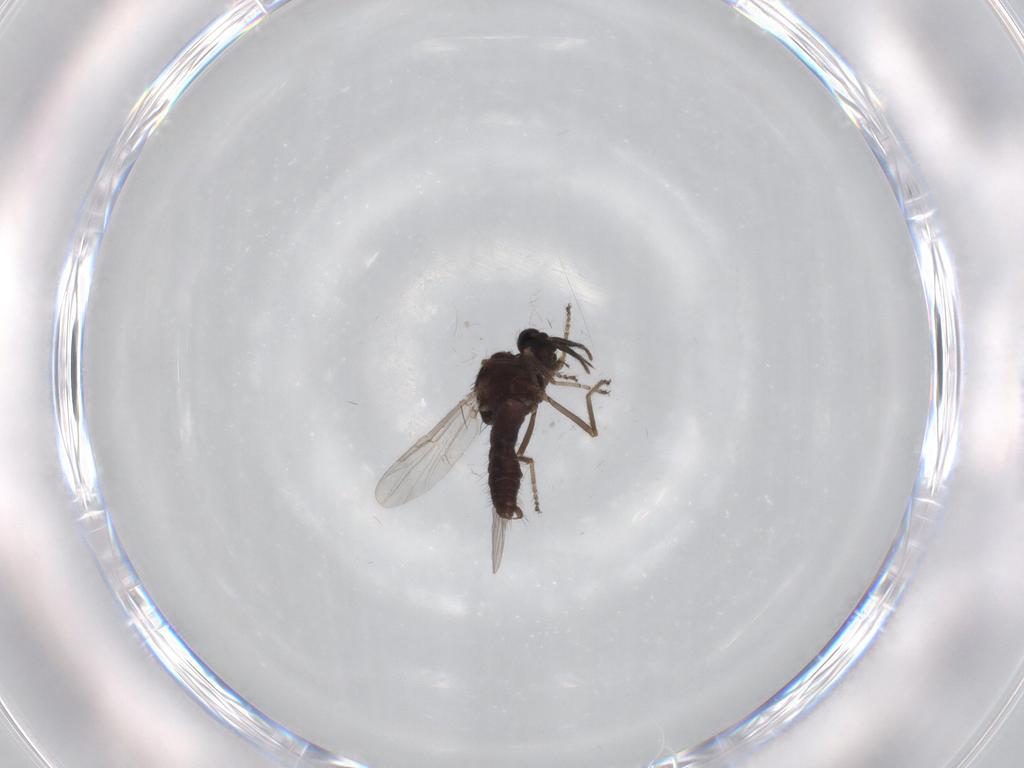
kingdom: Animalia
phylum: Arthropoda
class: Insecta
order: Diptera
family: Ceratopogonidae
